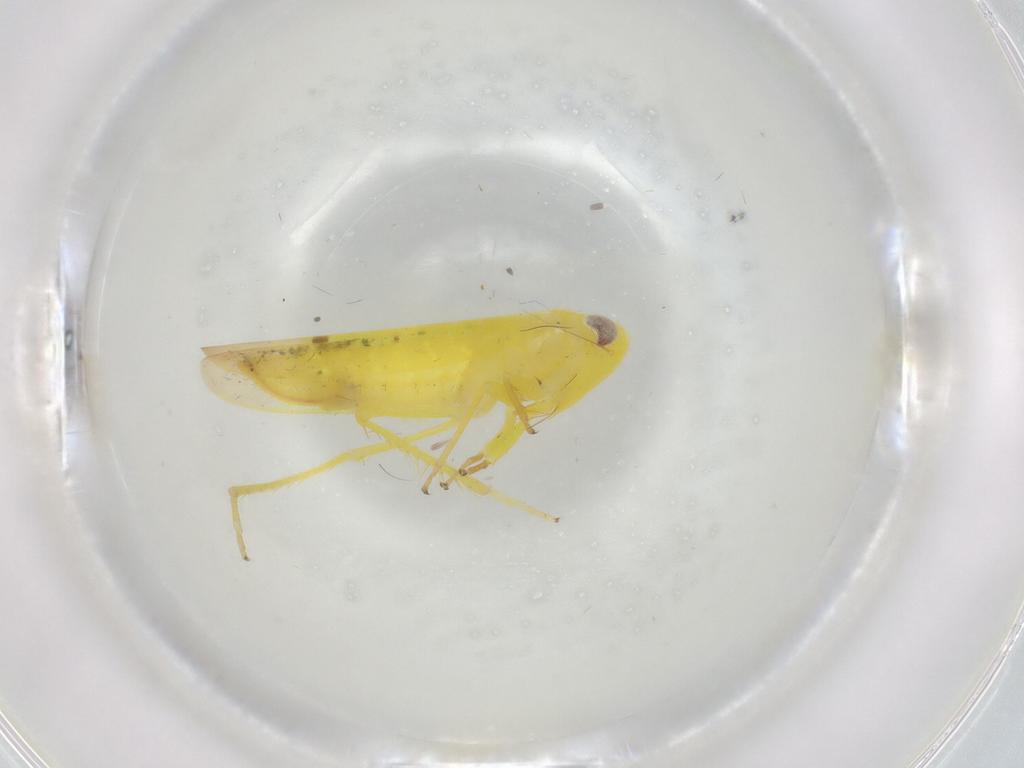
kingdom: Animalia
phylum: Arthropoda
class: Insecta
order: Hemiptera
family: Cicadellidae
